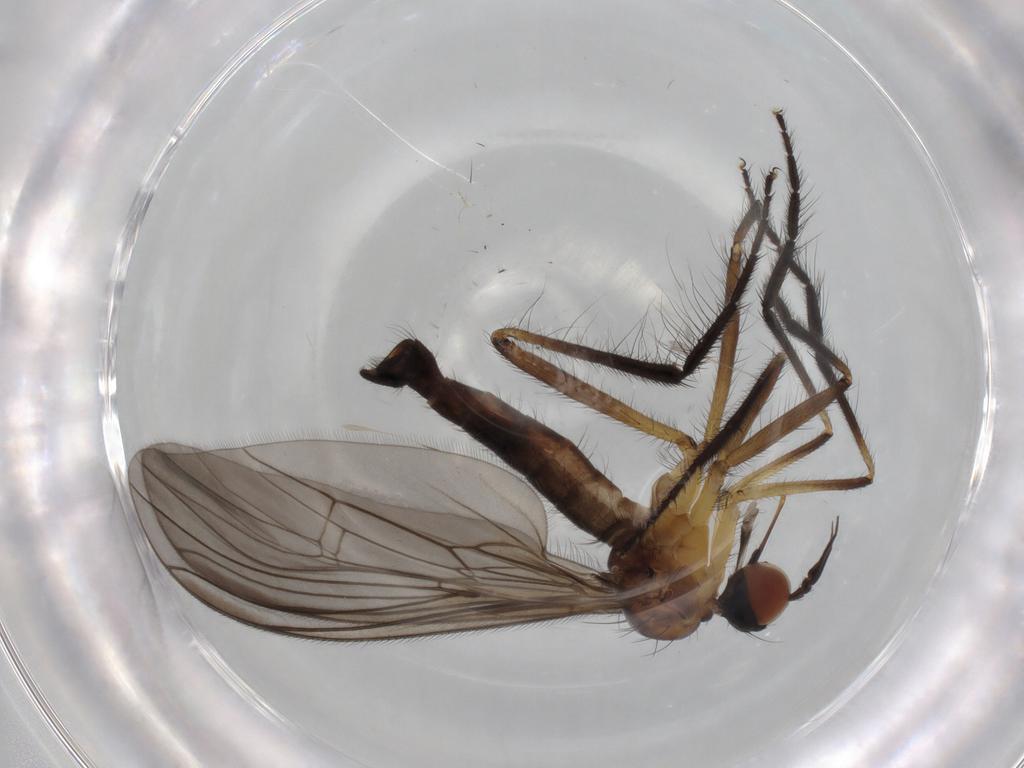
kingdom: Animalia
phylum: Arthropoda
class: Insecta
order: Diptera
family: Empididae
